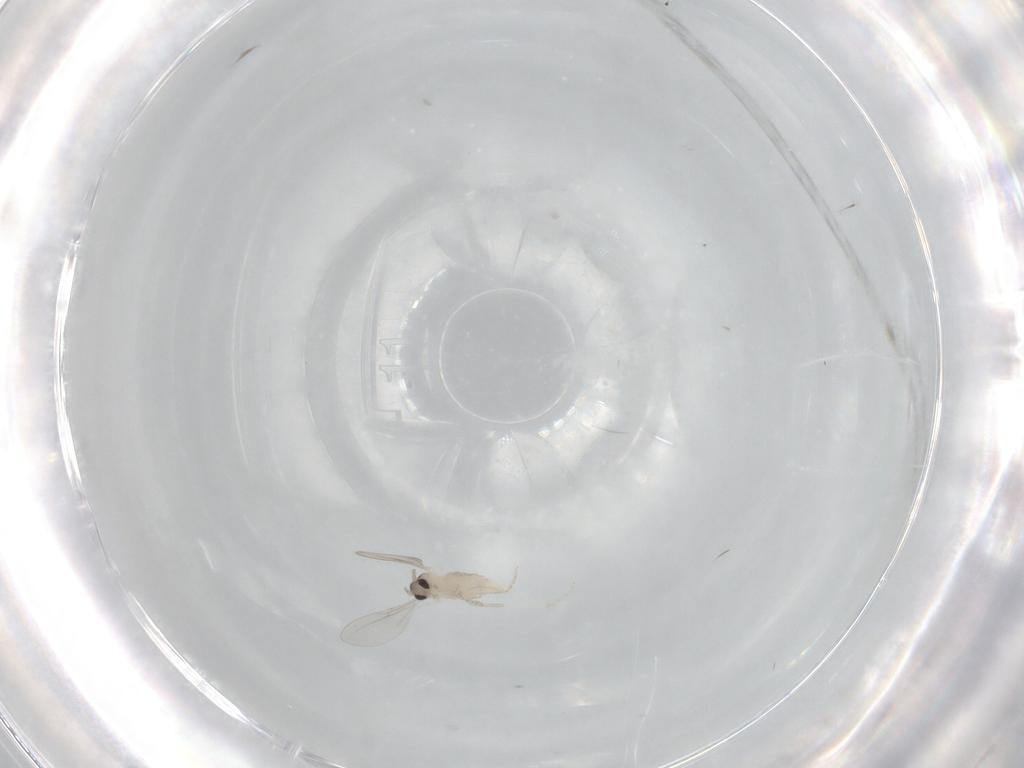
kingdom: Animalia
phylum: Arthropoda
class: Insecta
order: Diptera
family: Cecidomyiidae
